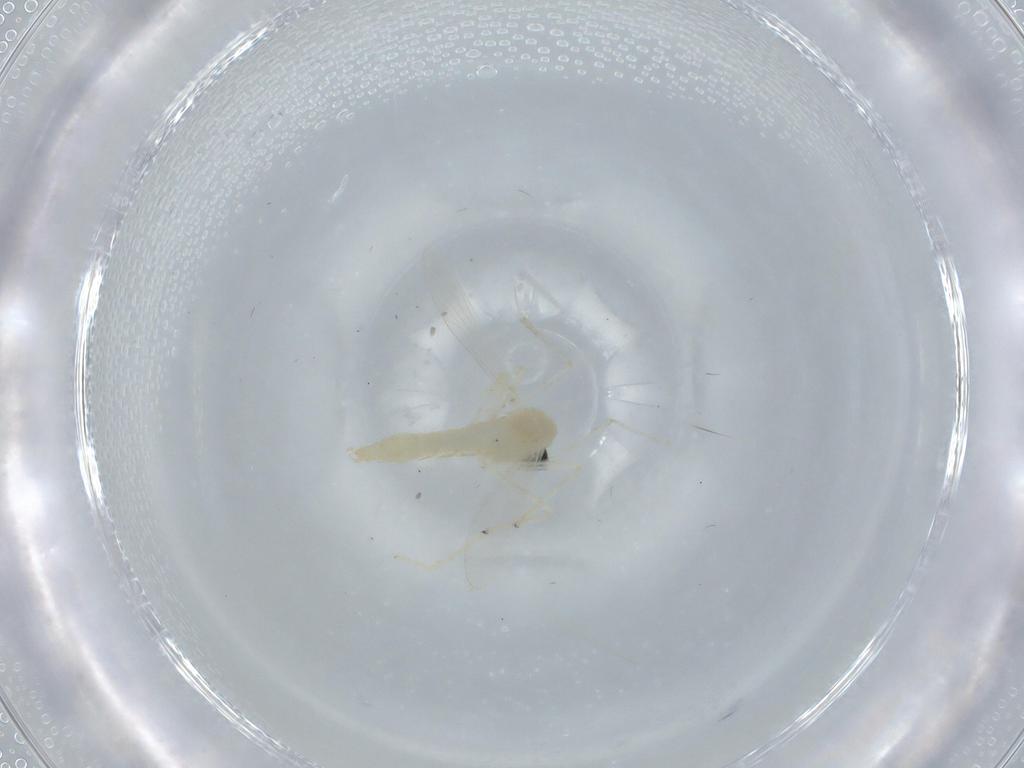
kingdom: Animalia
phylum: Arthropoda
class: Insecta
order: Diptera
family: Chironomidae
